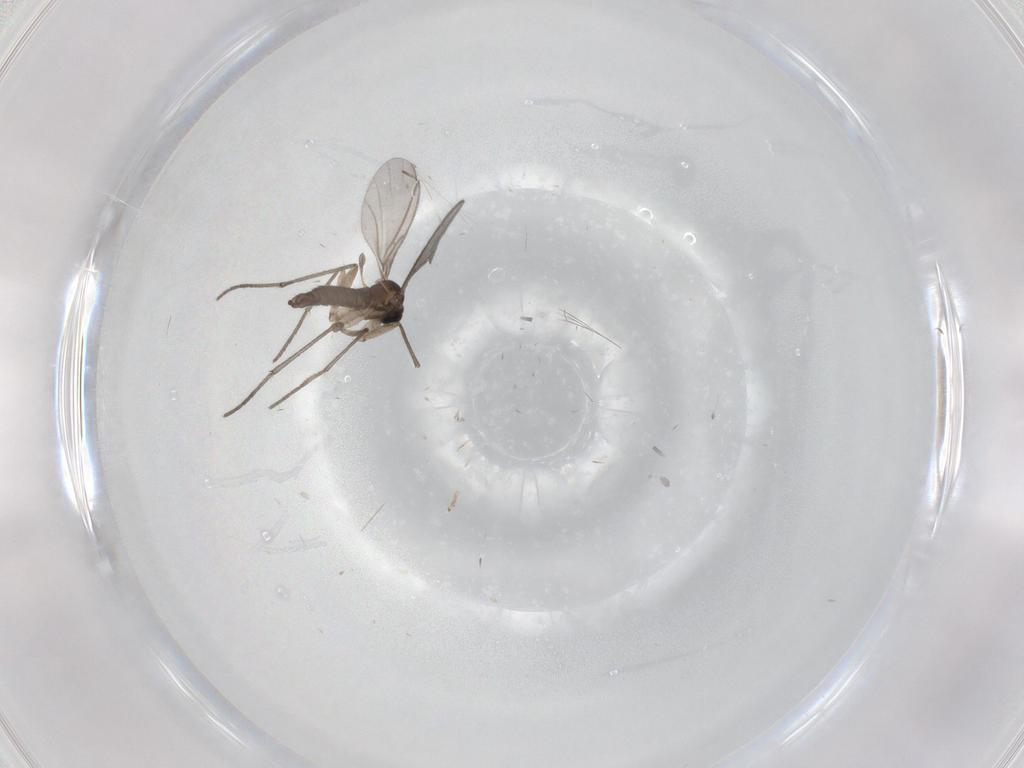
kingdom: Animalia
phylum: Arthropoda
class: Insecta
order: Diptera
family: Sciaridae
